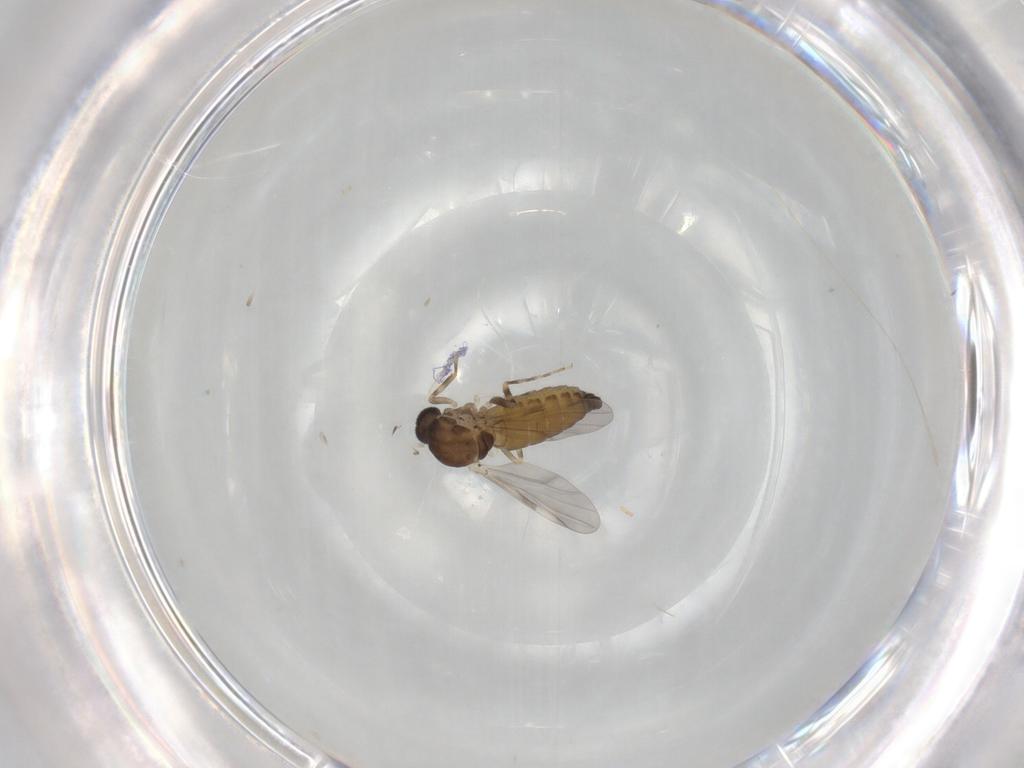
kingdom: Animalia
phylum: Arthropoda
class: Insecta
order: Diptera
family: Ceratopogonidae
